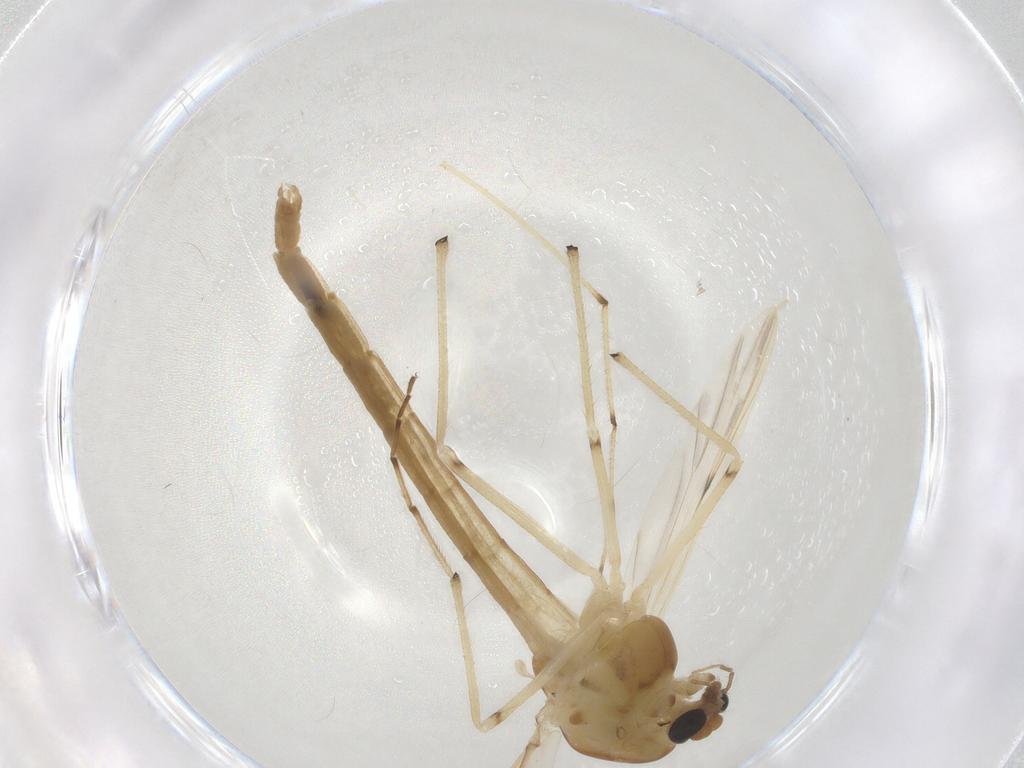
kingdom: Animalia
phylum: Arthropoda
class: Insecta
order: Diptera
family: Chironomidae
